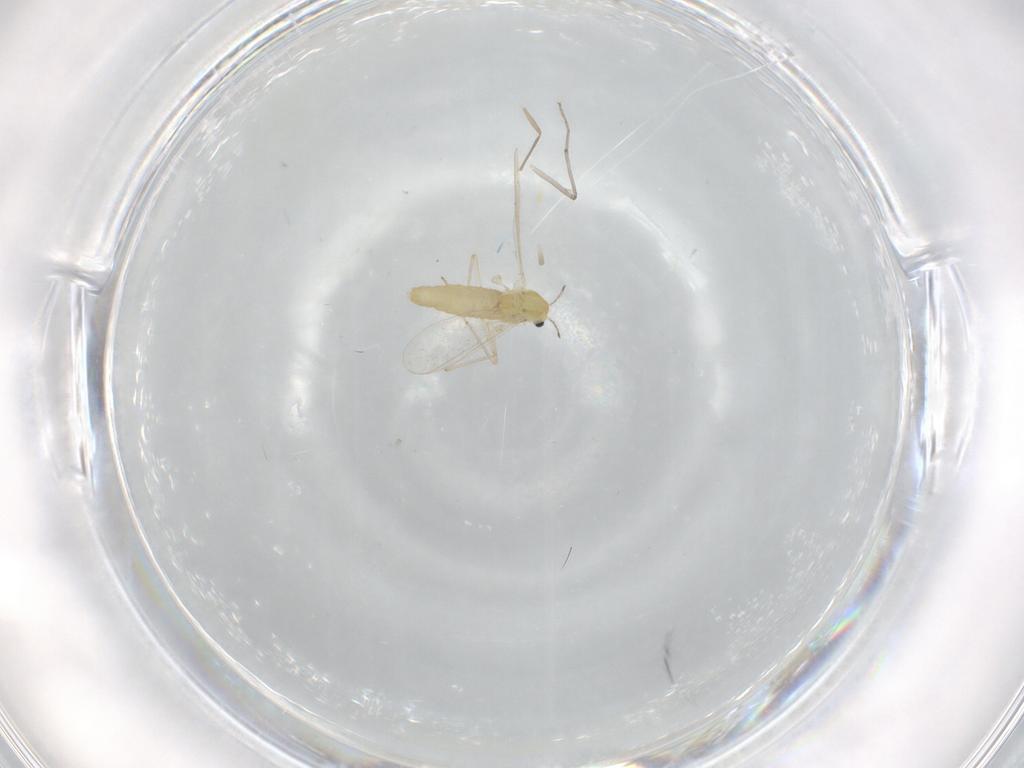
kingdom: Animalia
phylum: Arthropoda
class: Insecta
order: Diptera
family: Chironomidae
